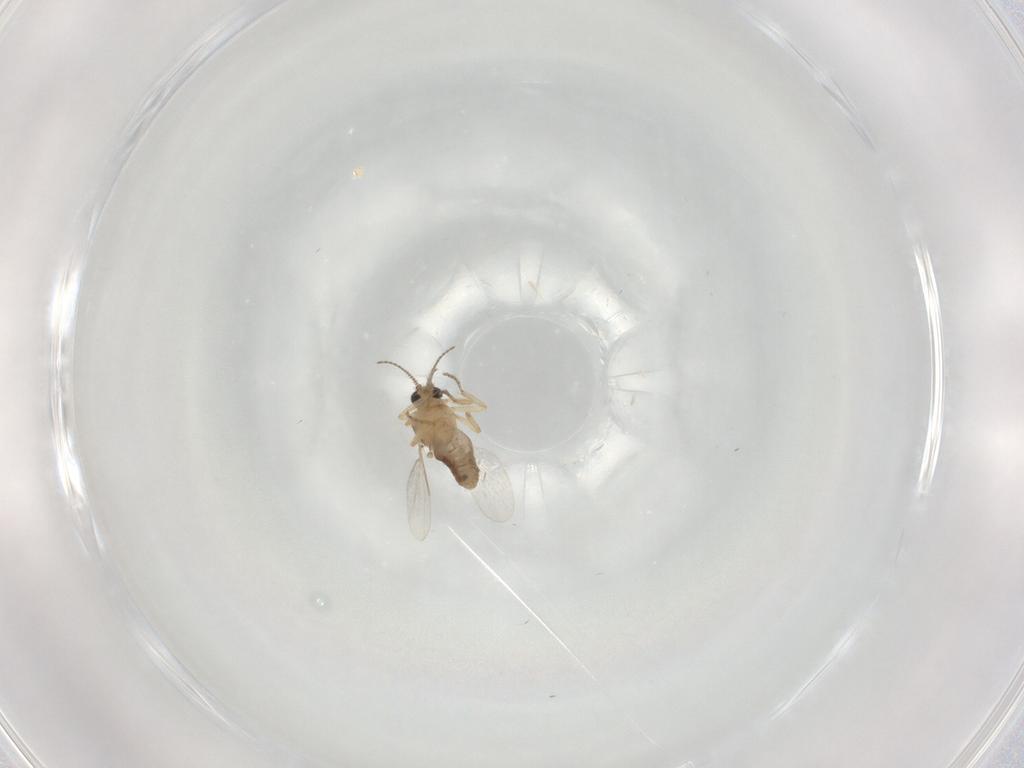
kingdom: Animalia
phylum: Arthropoda
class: Insecta
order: Diptera
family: Ceratopogonidae
